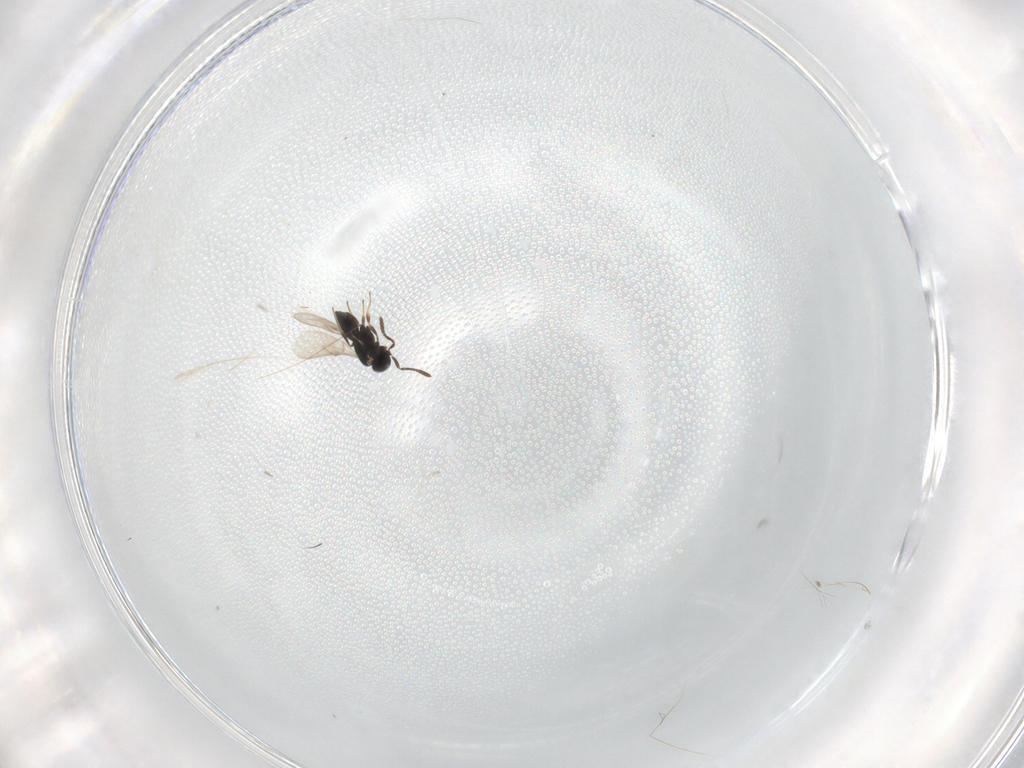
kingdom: Animalia
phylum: Arthropoda
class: Insecta
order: Hymenoptera
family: Scelionidae
